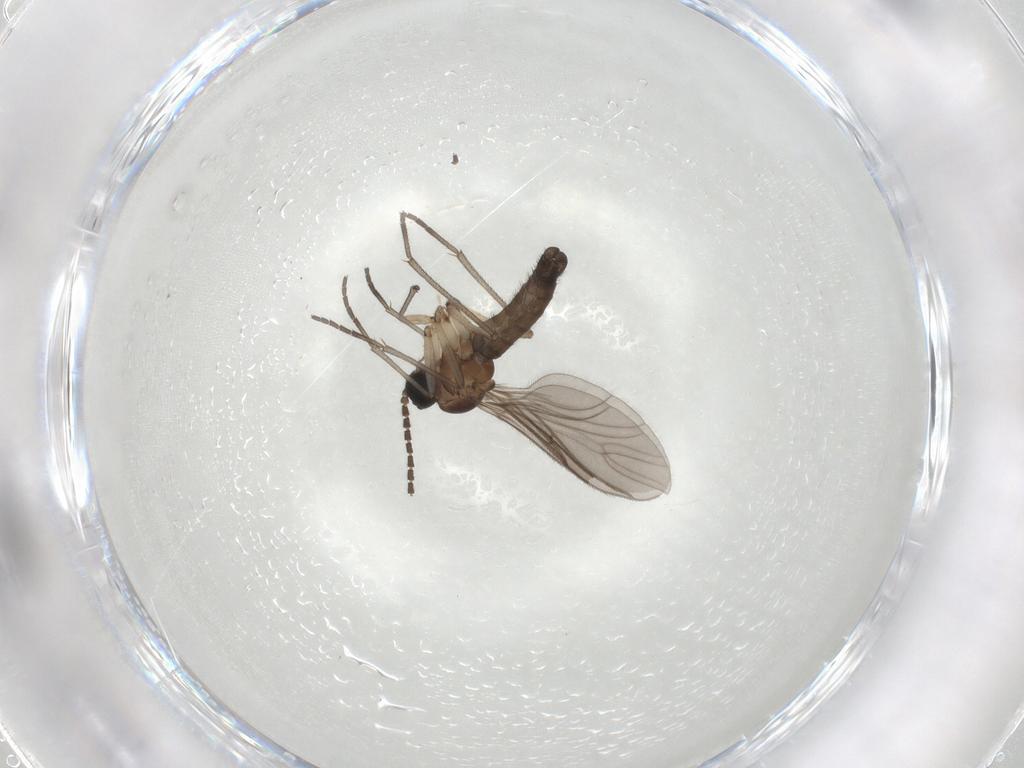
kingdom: Animalia
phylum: Arthropoda
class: Insecta
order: Diptera
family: Sciaridae
